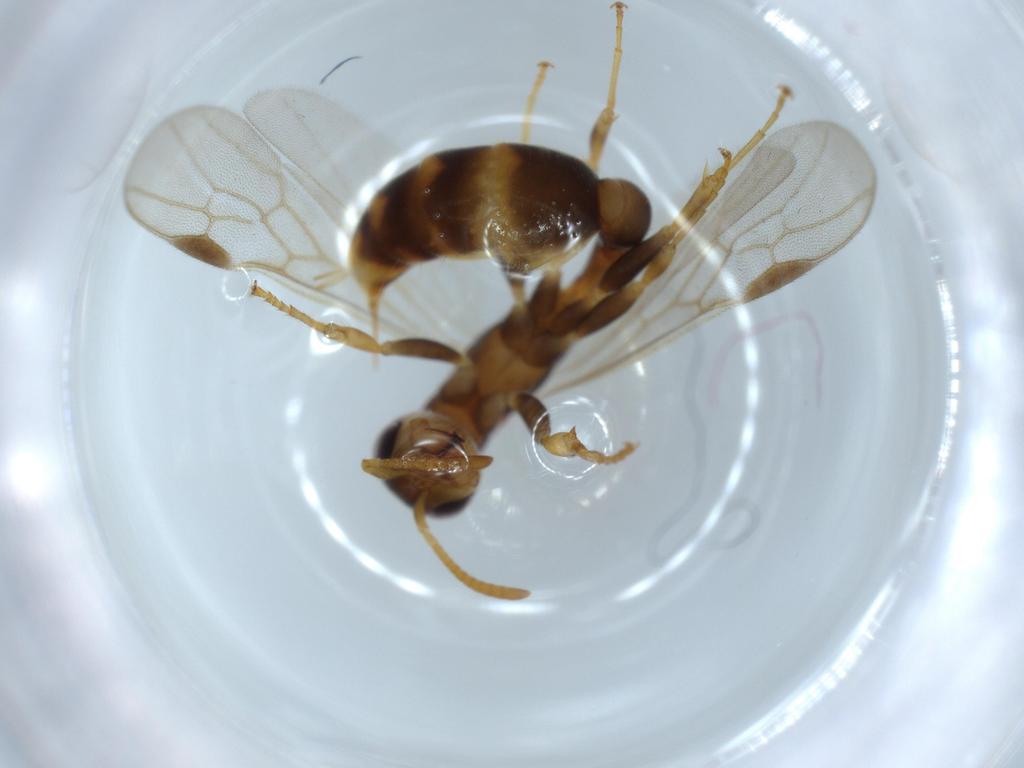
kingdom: Animalia
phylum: Arthropoda
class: Insecta
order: Hymenoptera
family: Formicidae
